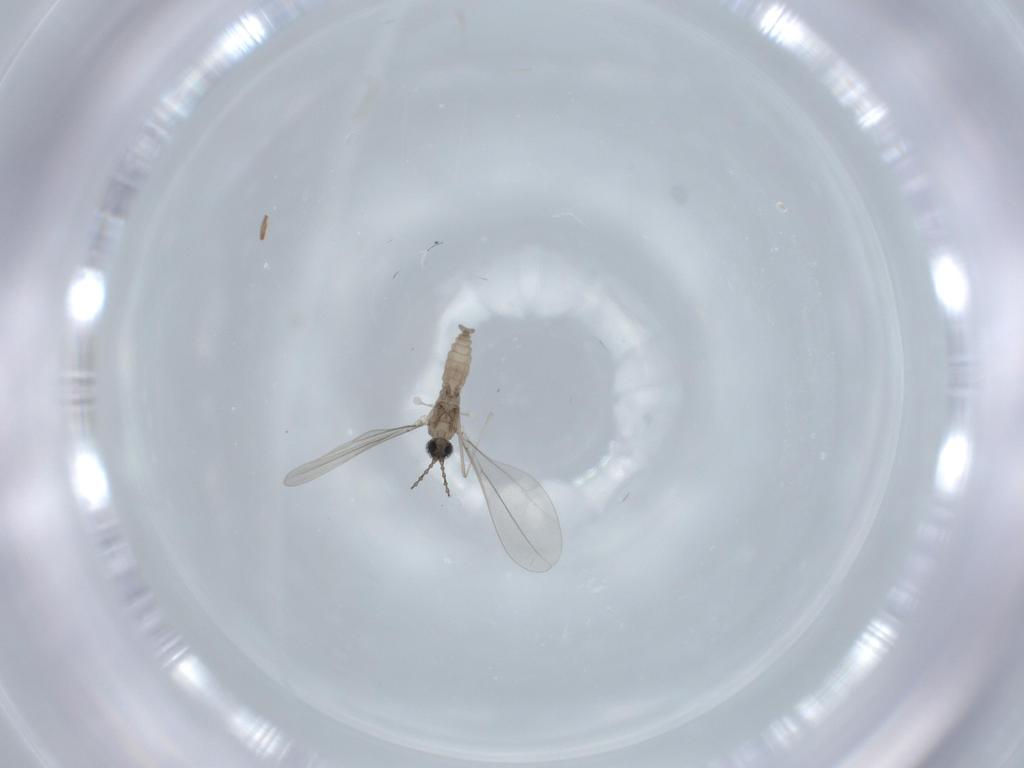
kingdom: Animalia
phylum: Arthropoda
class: Insecta
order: Diptera
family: Cecidomyiidae
